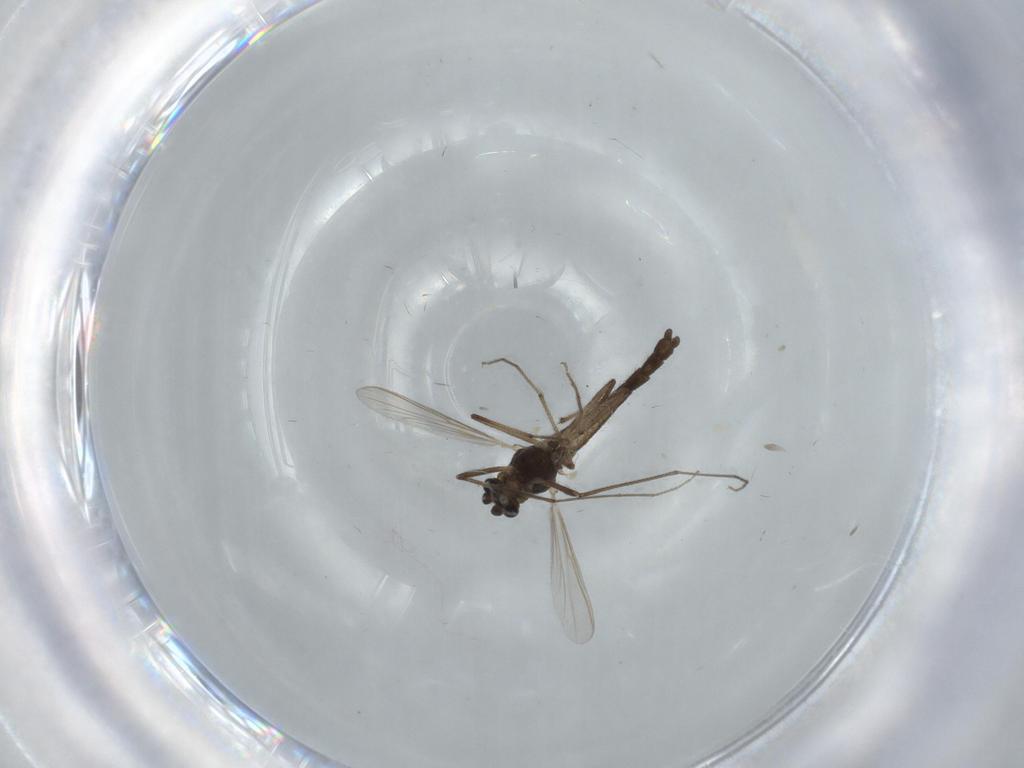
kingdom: Animalia
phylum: Arthropoda
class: Insecta
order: Diptera
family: Chironomidae
